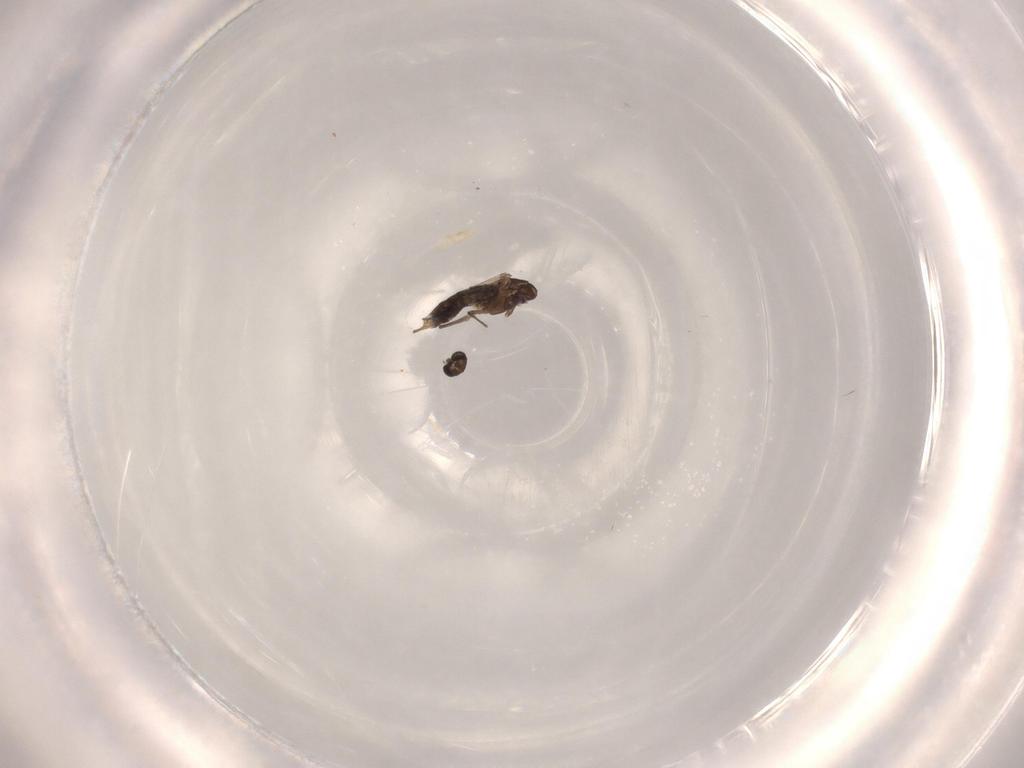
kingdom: Animalia
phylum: Arthropoda
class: Insecta
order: Diptera
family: Chironomidae
